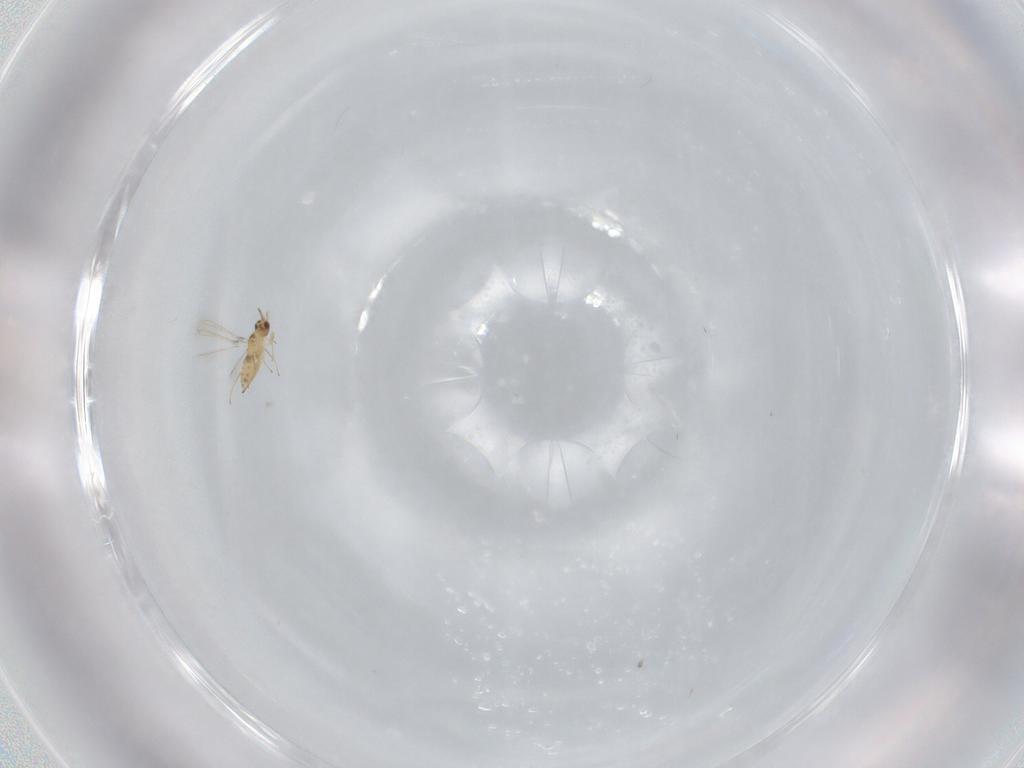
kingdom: Animalia
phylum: Arthropoda
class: Insecta
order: Hymenoptera
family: Mymaridae
